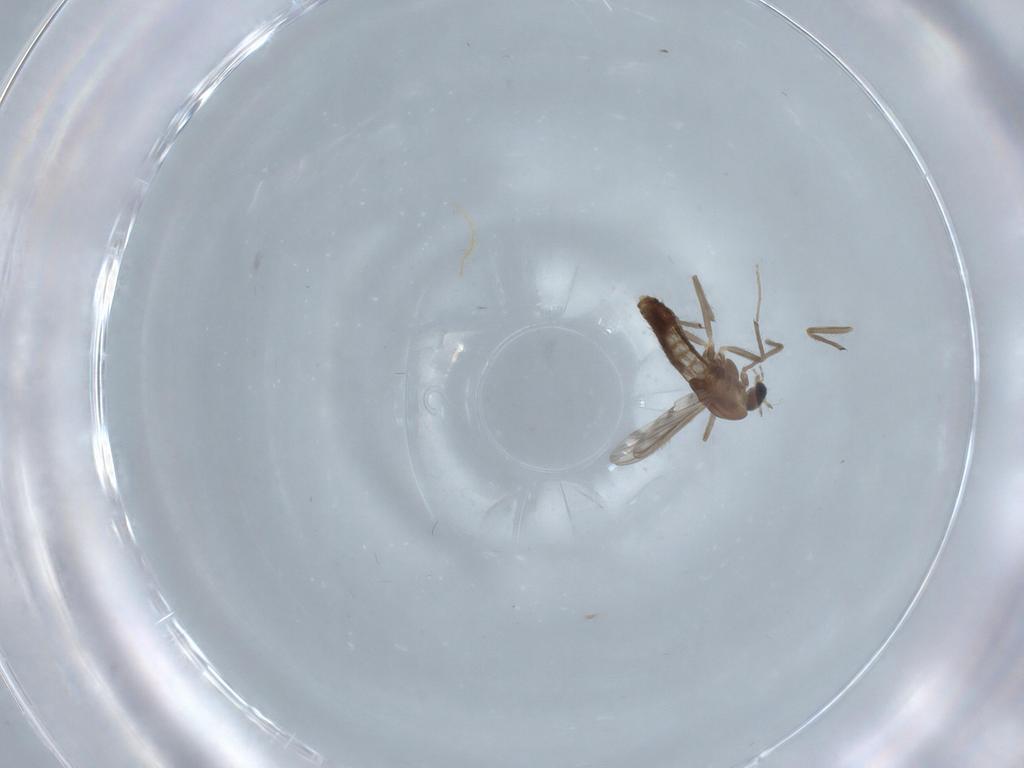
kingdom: Animalia
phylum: Arthropoda
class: Insecta
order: Diptera
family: Chironomidae
